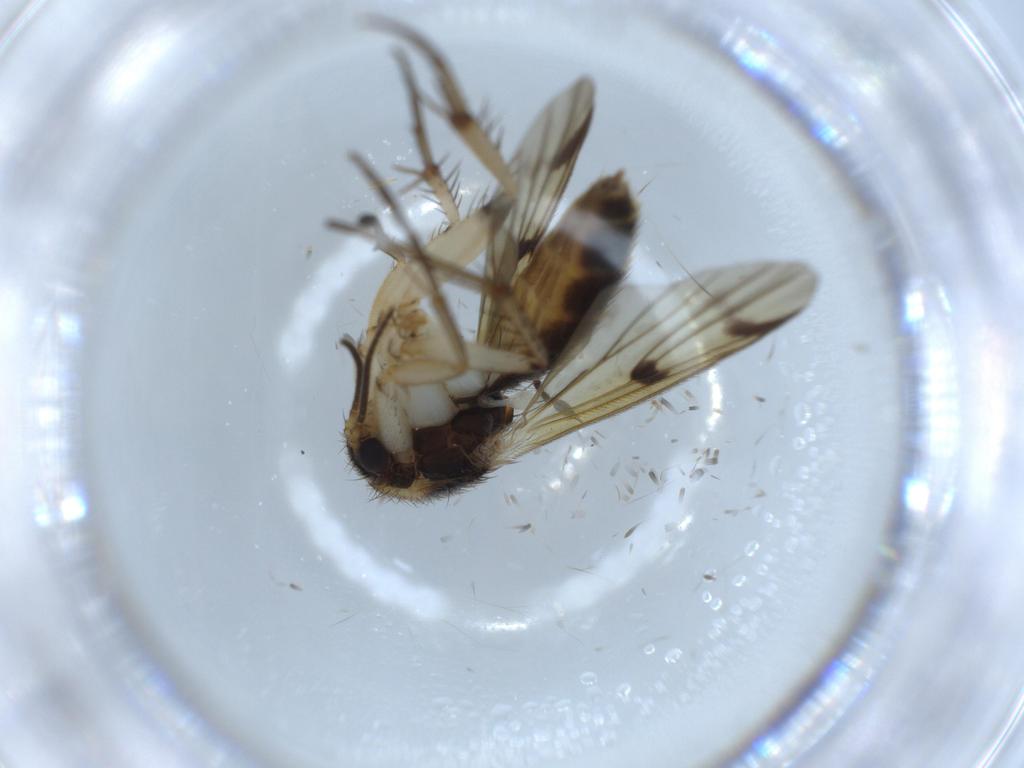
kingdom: Animalia
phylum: Arthropoda
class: Insecta
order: Diptera
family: Mycetophilidae
